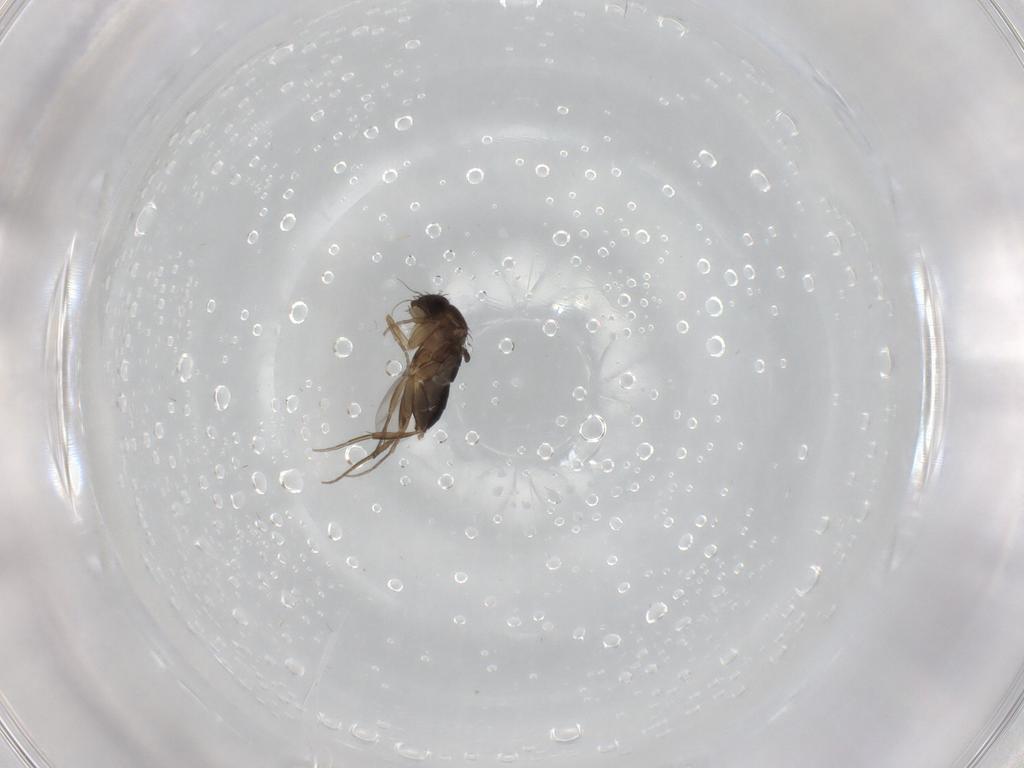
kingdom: Animalia
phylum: Arthropoda
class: Insecta
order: Diptera
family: Phoridae
